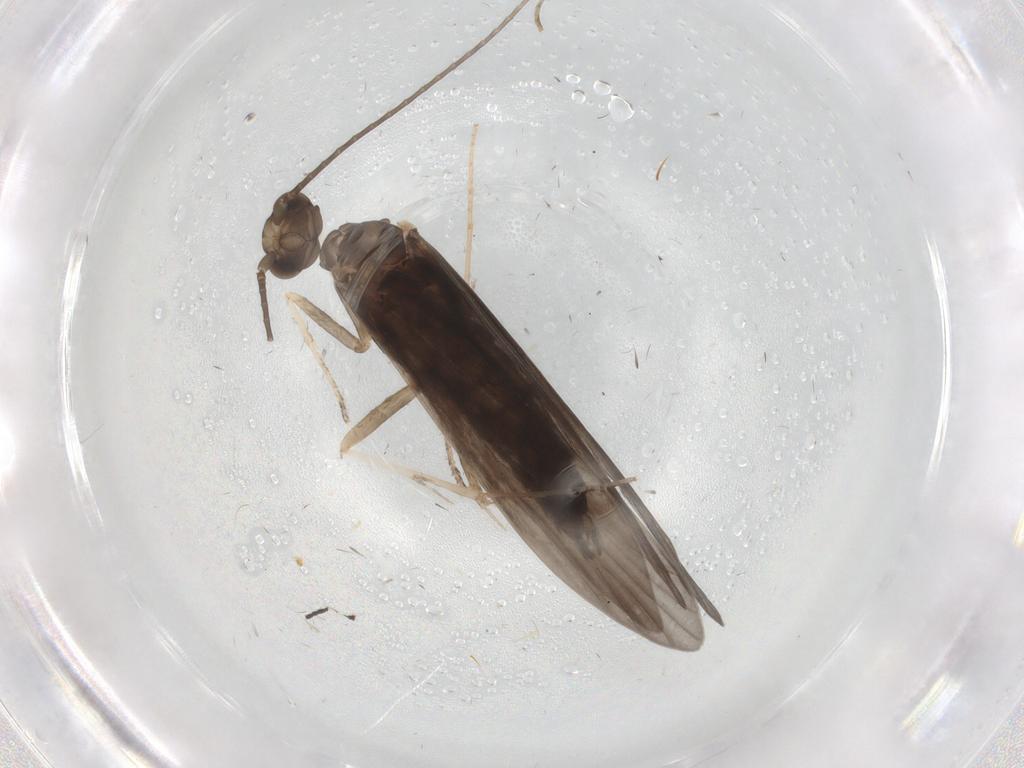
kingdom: Animalia
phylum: Arthropoda
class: Insecta
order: Trichoptera
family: Xiphocentronidae
